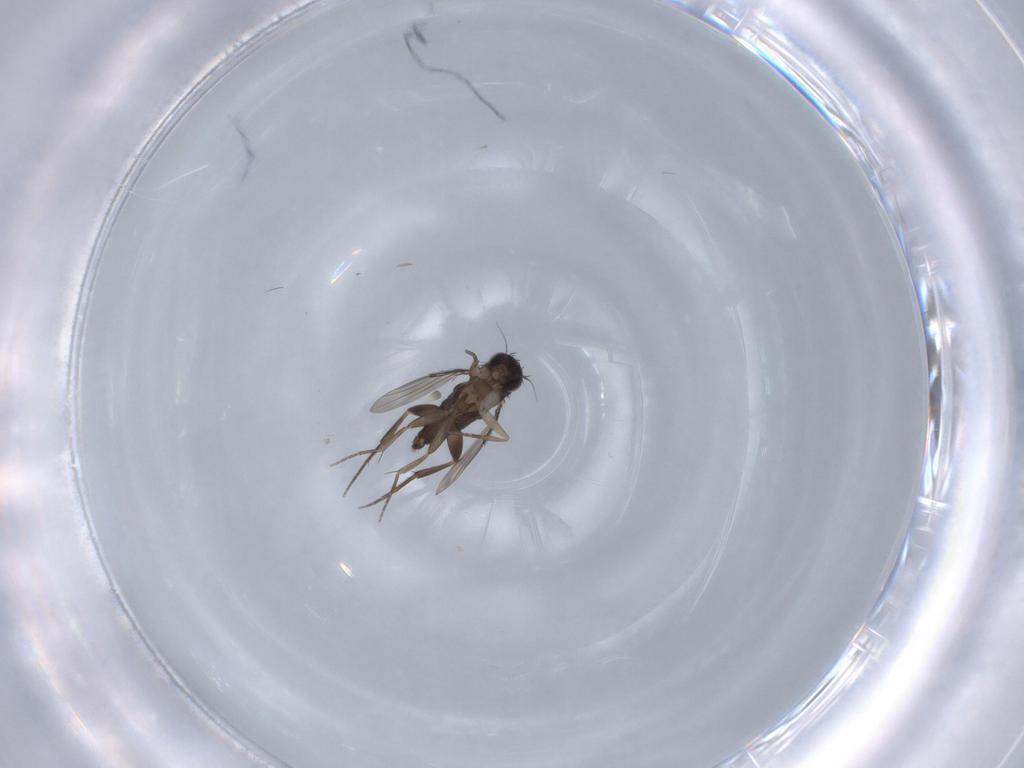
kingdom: Animalia
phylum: Arthropoda
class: Insecta
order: Diptera
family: Phoridae
